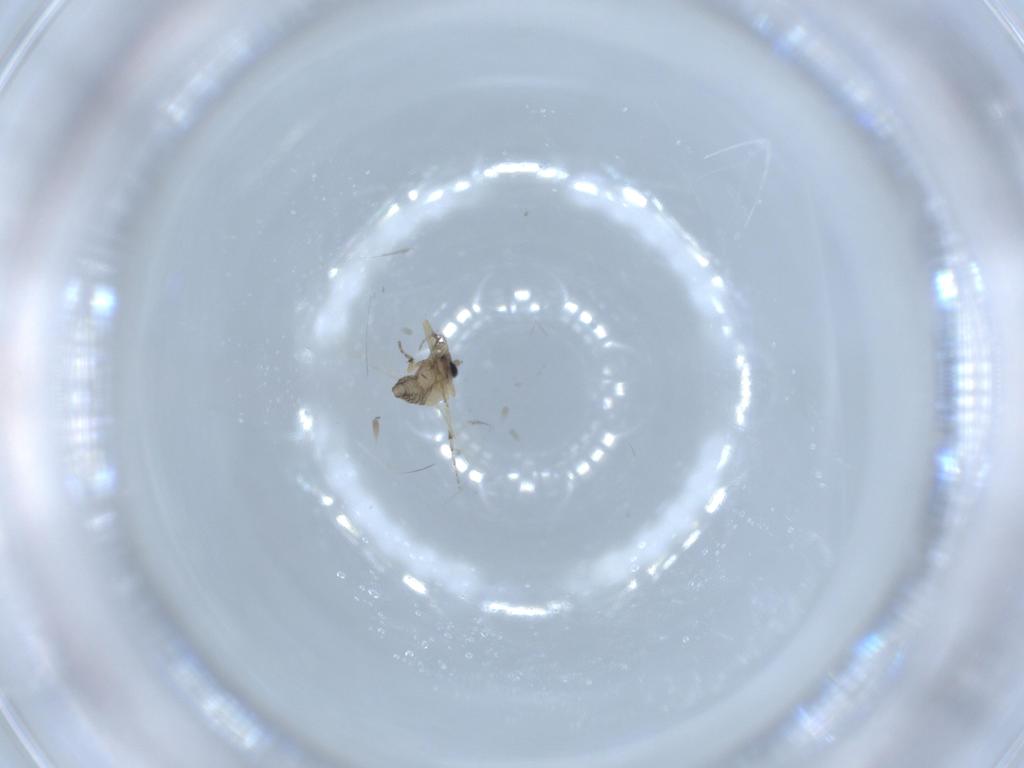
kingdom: Animalia
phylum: Arthropoda
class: Insecta
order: Diptera
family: Ceratopogonidae
